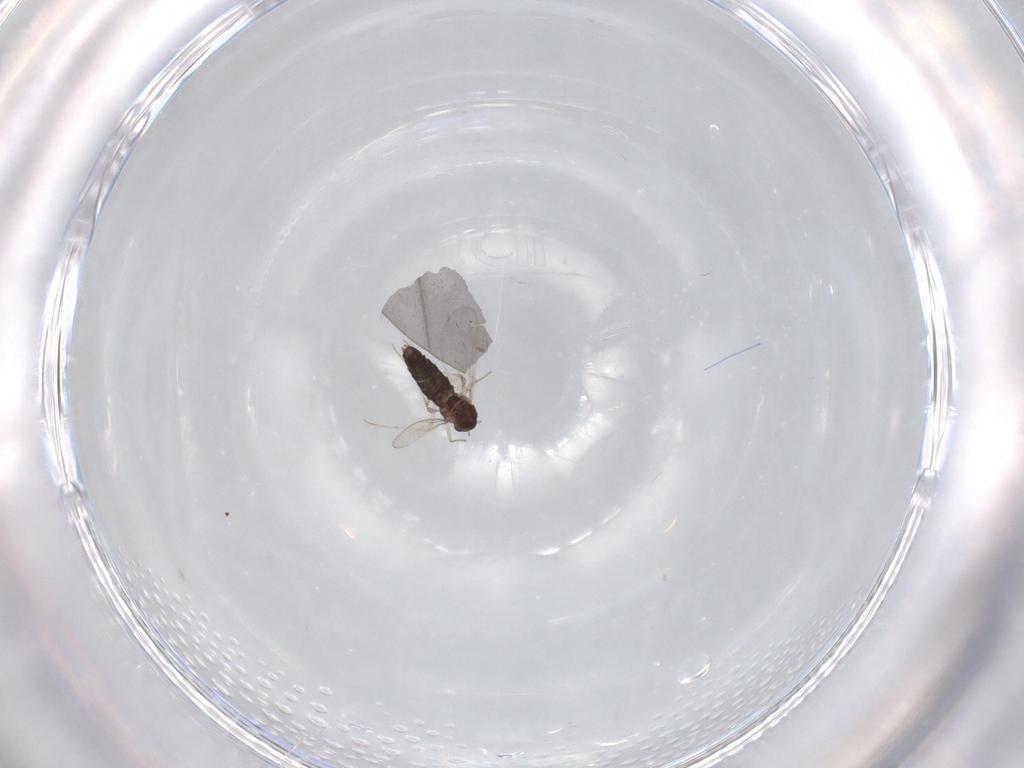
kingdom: Animalia
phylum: Arthropoda
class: Insecta
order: Diptera
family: Chironomidae
